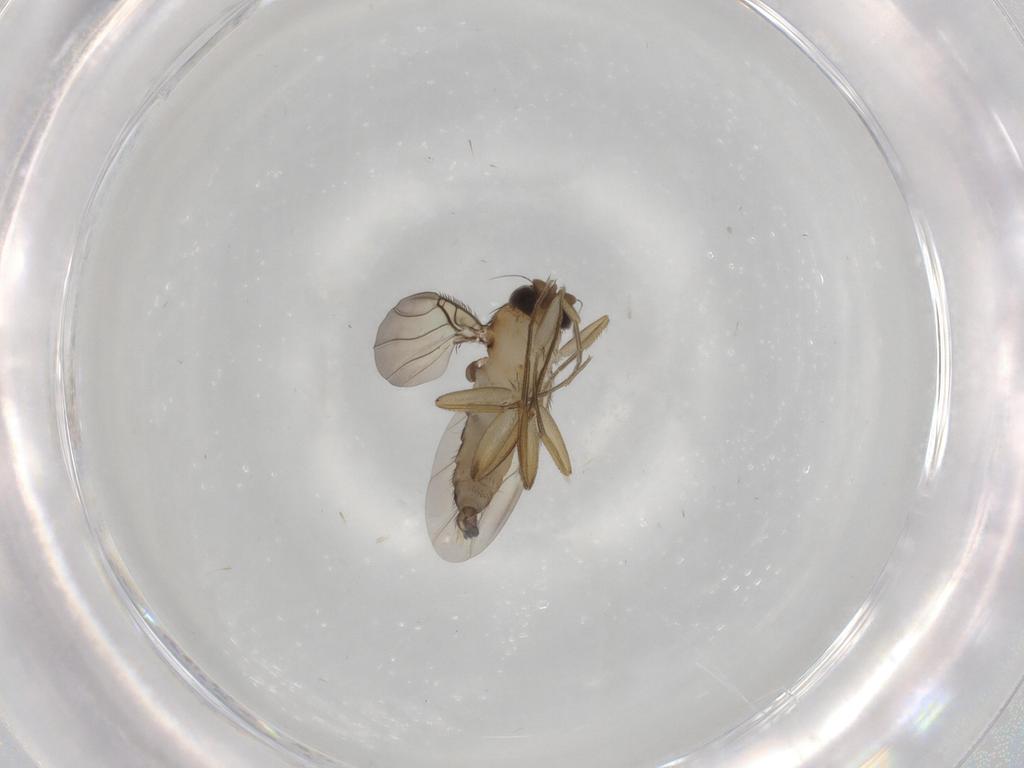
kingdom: Animalia
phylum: Arthropoda
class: Insecta
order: Diptera
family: Phoridae
